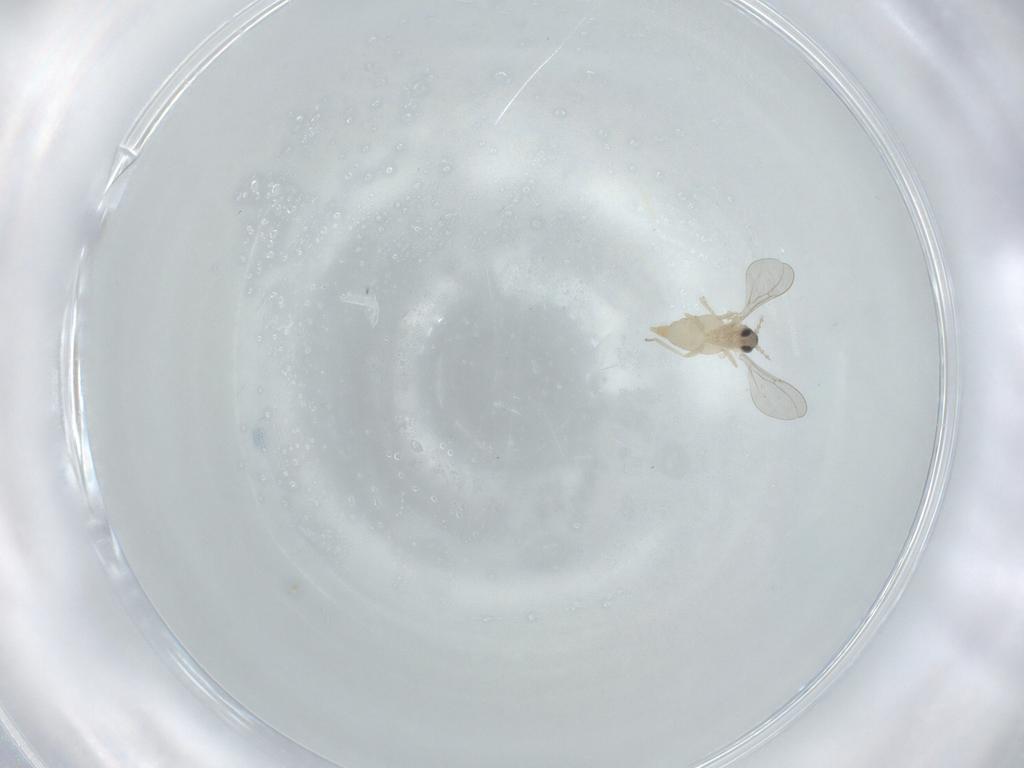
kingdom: Animalia
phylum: Arthropoda
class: Insecta
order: Diptera
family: Cecidomyiidae
